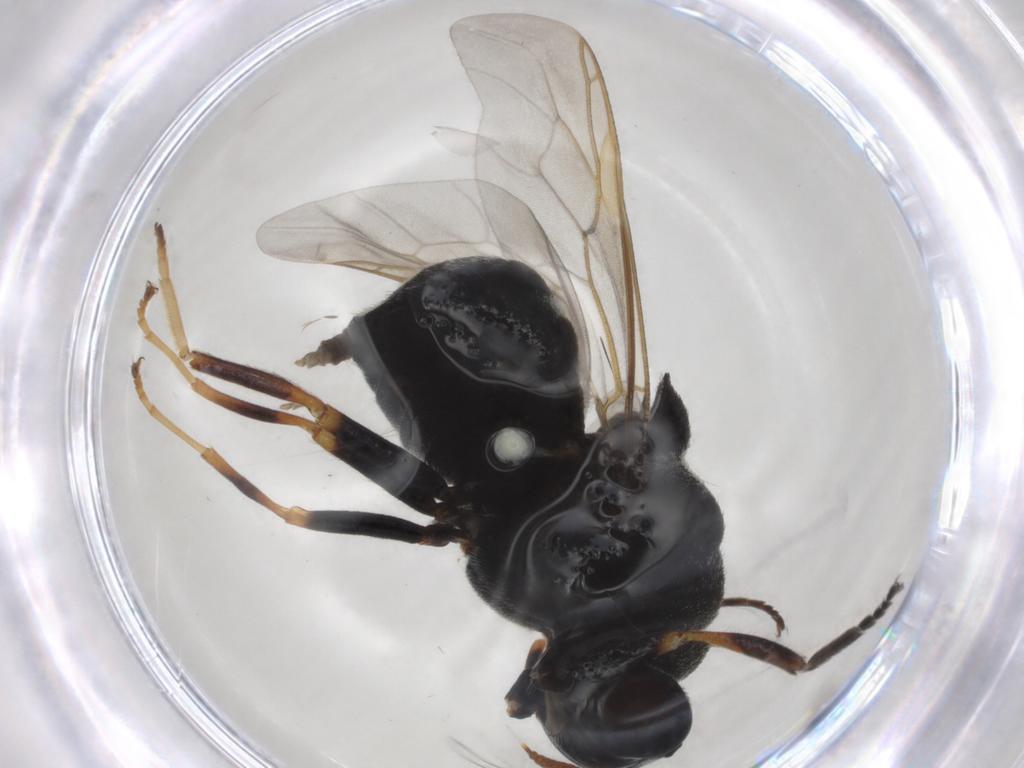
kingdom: Animalia
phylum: Arthropoda
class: Insecta
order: Diptera
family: Stratiomyidae
